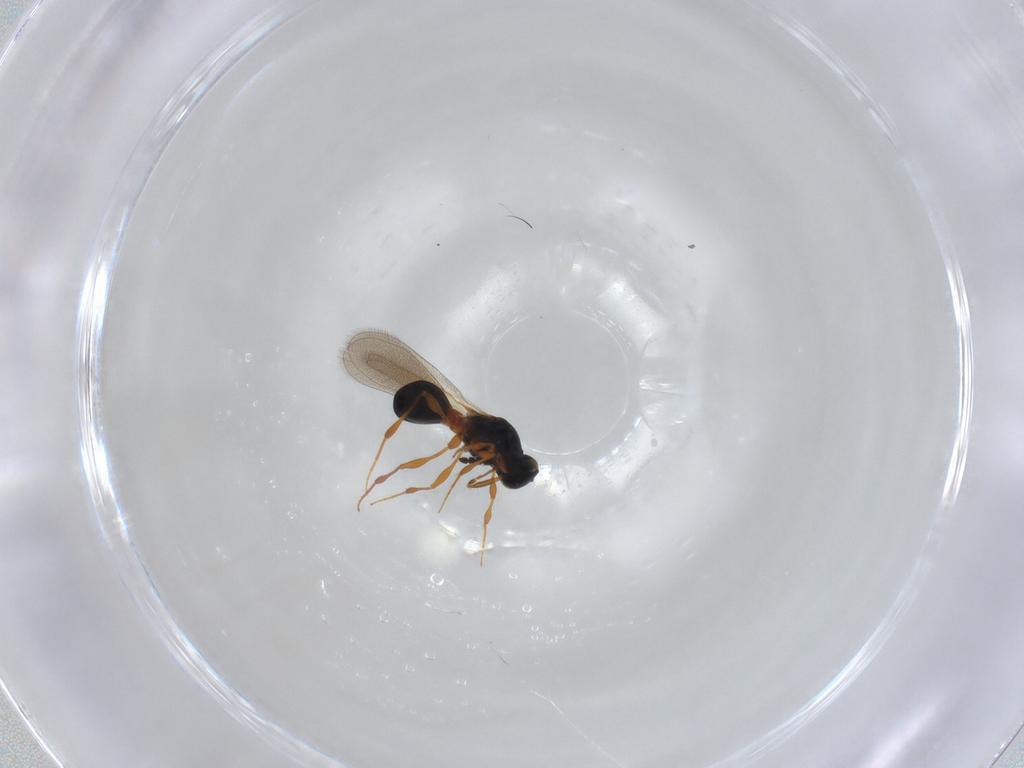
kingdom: Animalia
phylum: Arthropoda
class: Insecta
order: Hymenoptera
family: Platygastridae
